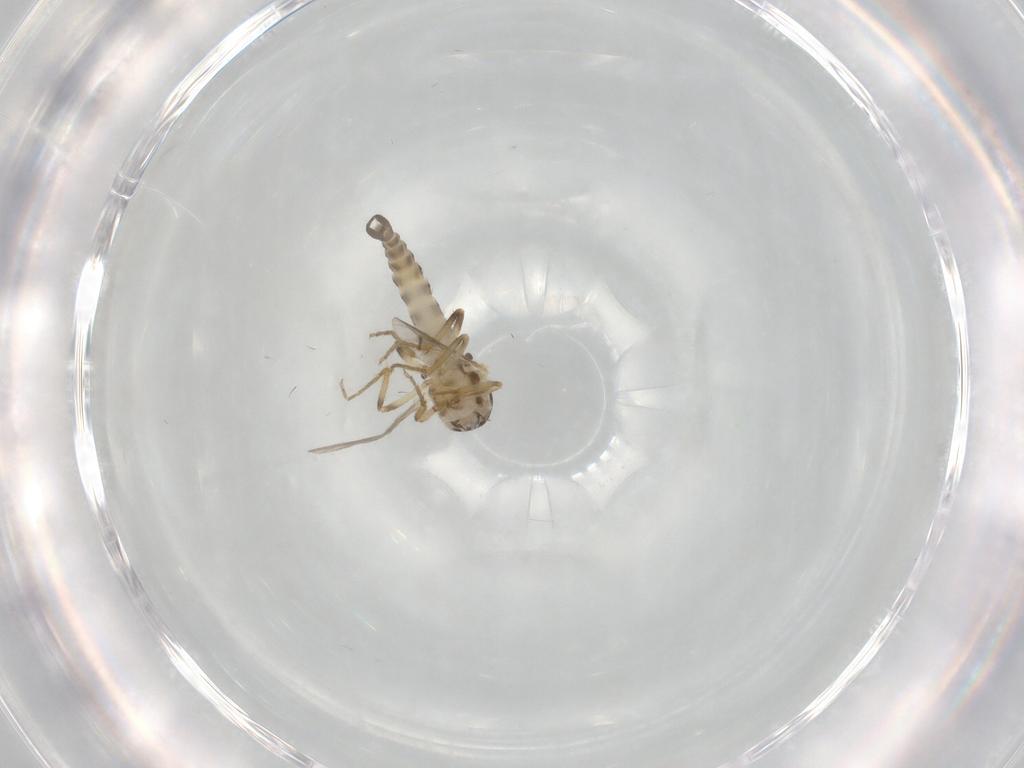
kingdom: Animalia
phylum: Arthropoda
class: Insecta
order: Diptera
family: Ceratopogonidae
